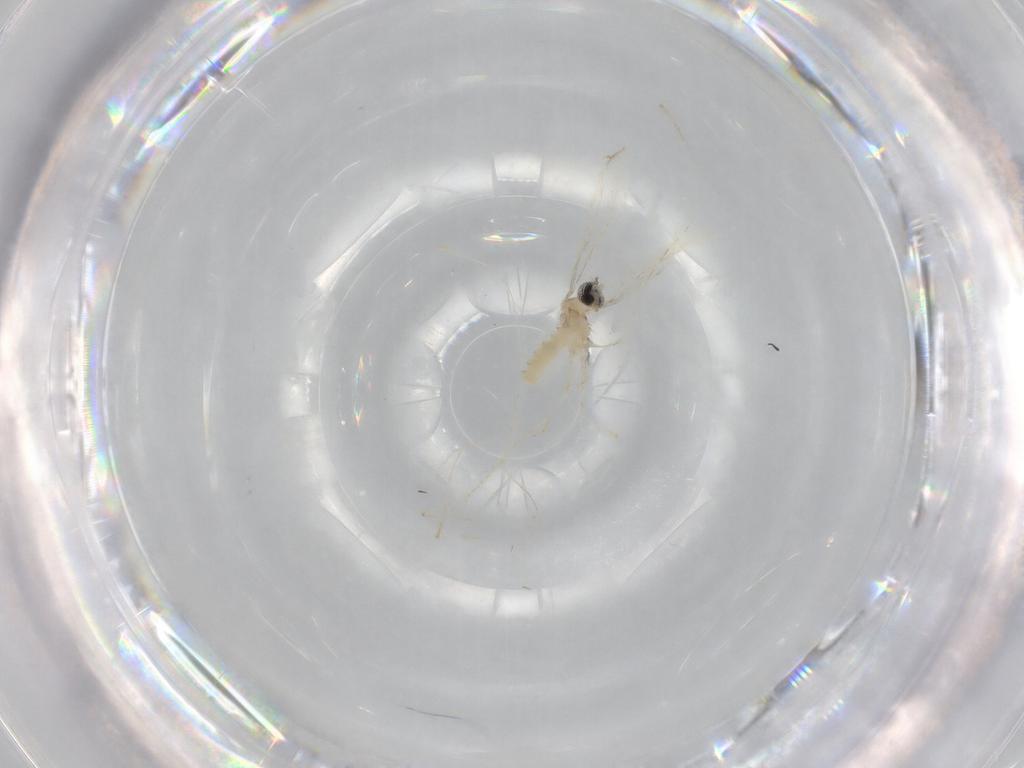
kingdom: Animalia
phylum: Arthropoda
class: Insecta
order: Diptera
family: Cecidomyiidae
